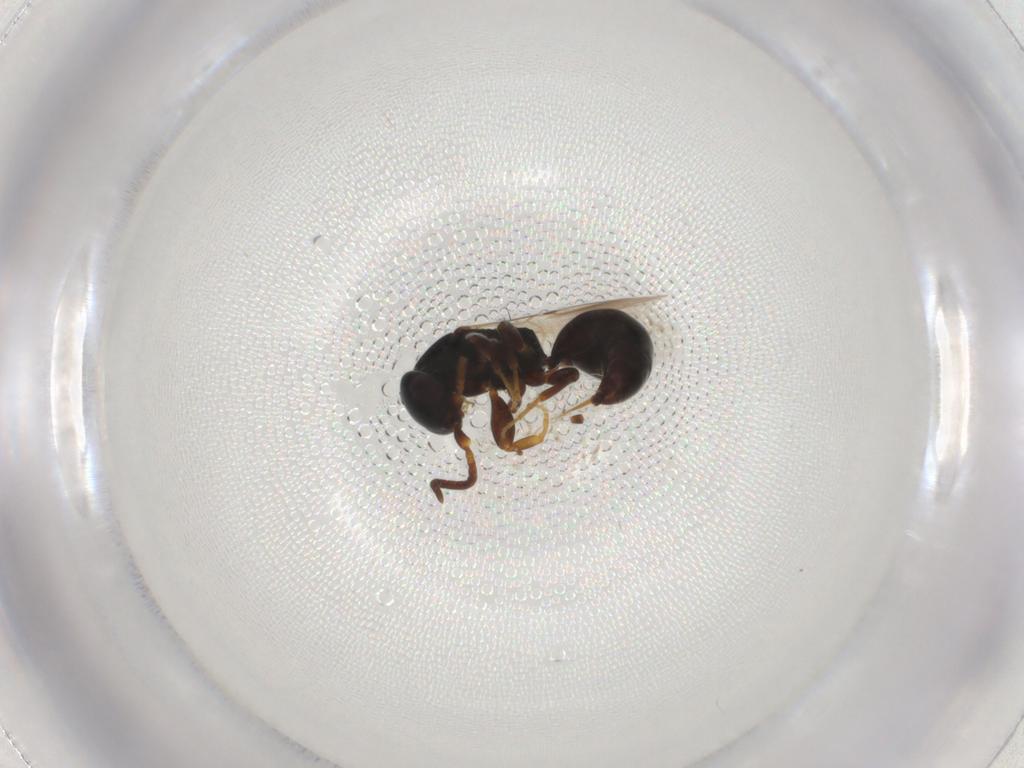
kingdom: Animalia
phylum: Arthropoda
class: Insecta
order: Hymenoptera
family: Bethylidae
